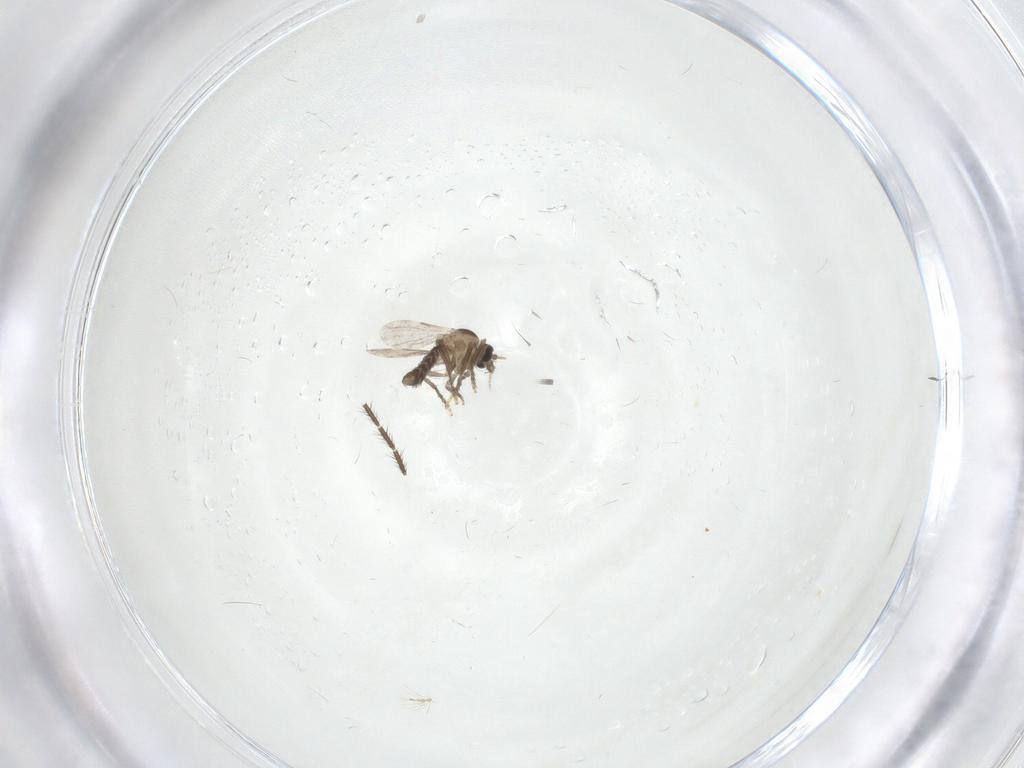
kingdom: Animalia
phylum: Arthropoda
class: Insecta
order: Diptera
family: Ceratopogonidae
